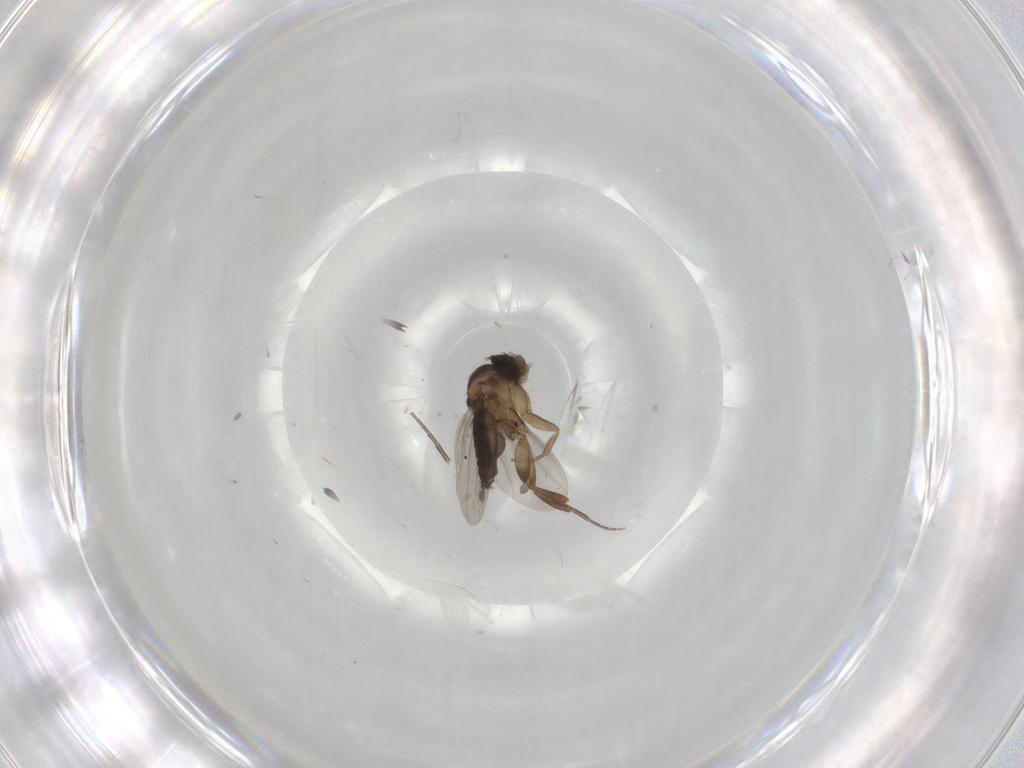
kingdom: Animalia
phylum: Arthropoda
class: Insecta
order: Diptera
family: Phoridae
